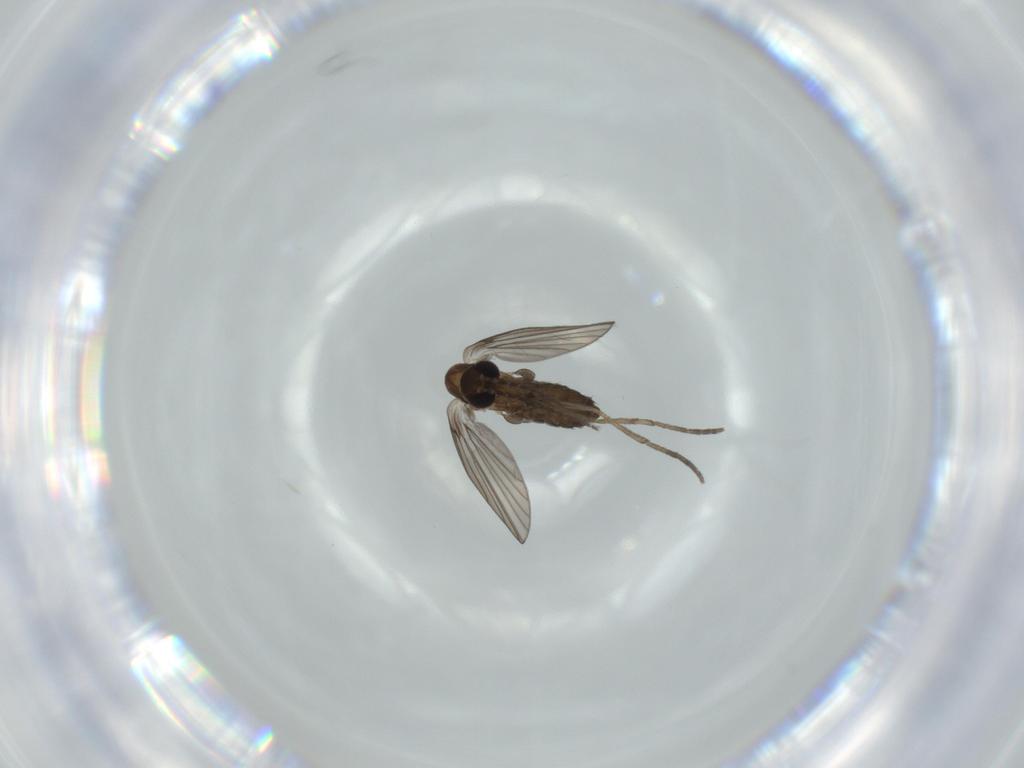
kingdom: Animalia
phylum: Arthropoda
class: Insecta
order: Diptera
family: Psychodidae
